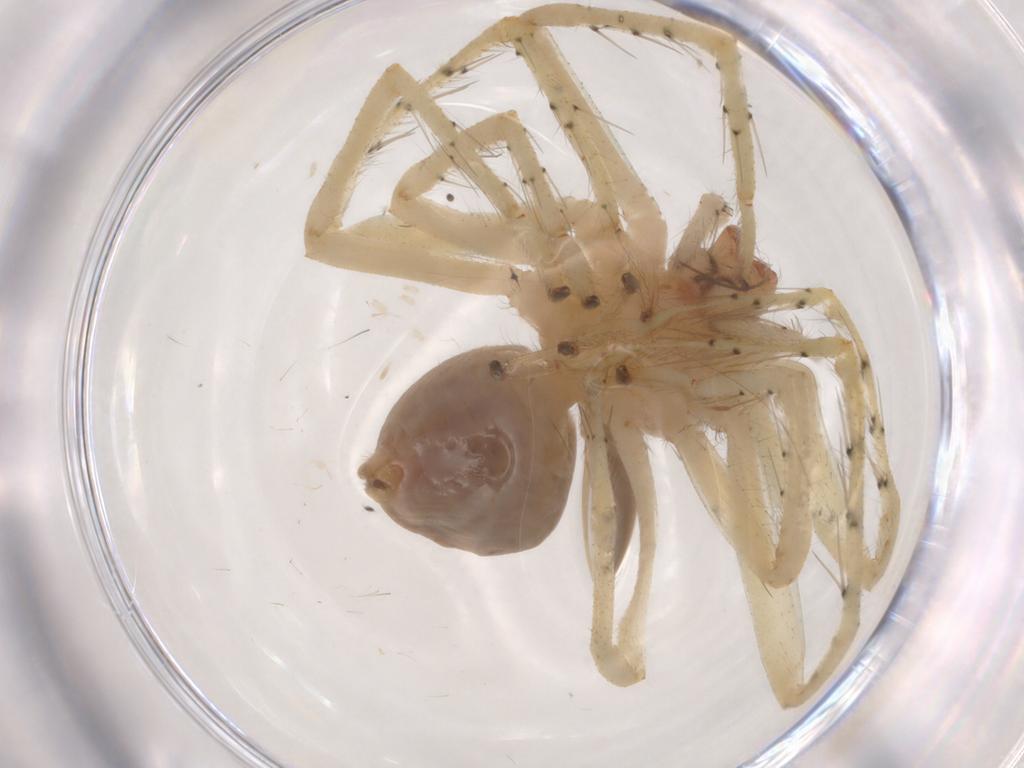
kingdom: Animalia
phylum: Arthropoda
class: Arachnida
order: Araneae
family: Sparassidae
